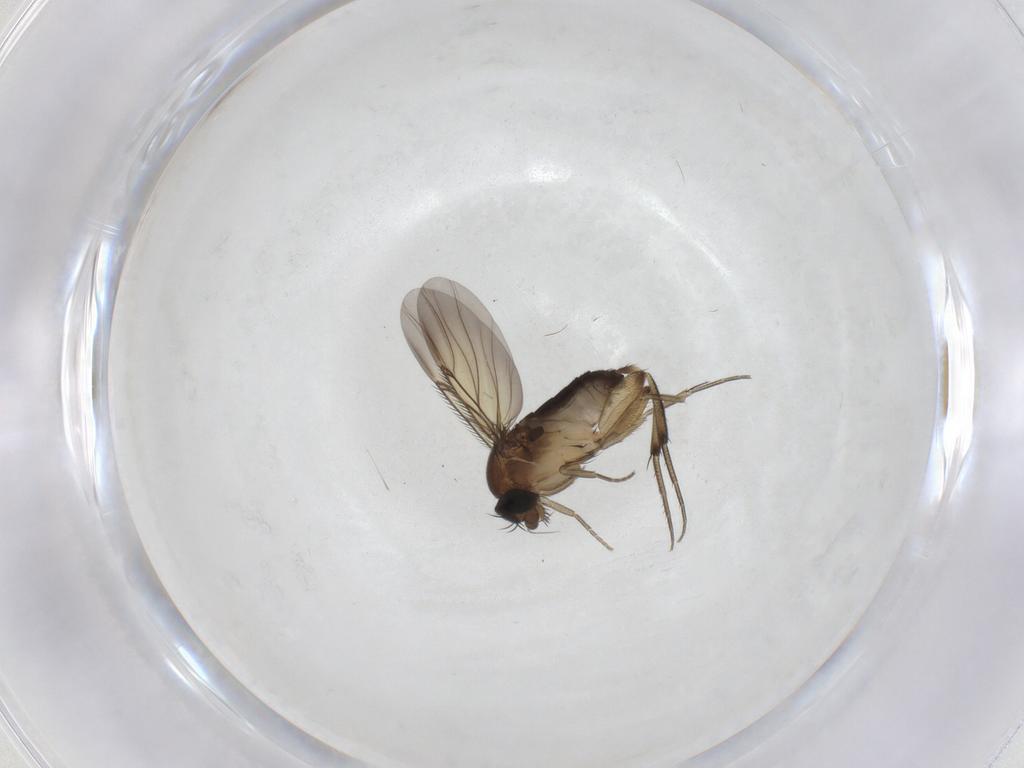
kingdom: Animalia
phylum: Arthropoda
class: Insecta
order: Diptera
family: Phoridae
